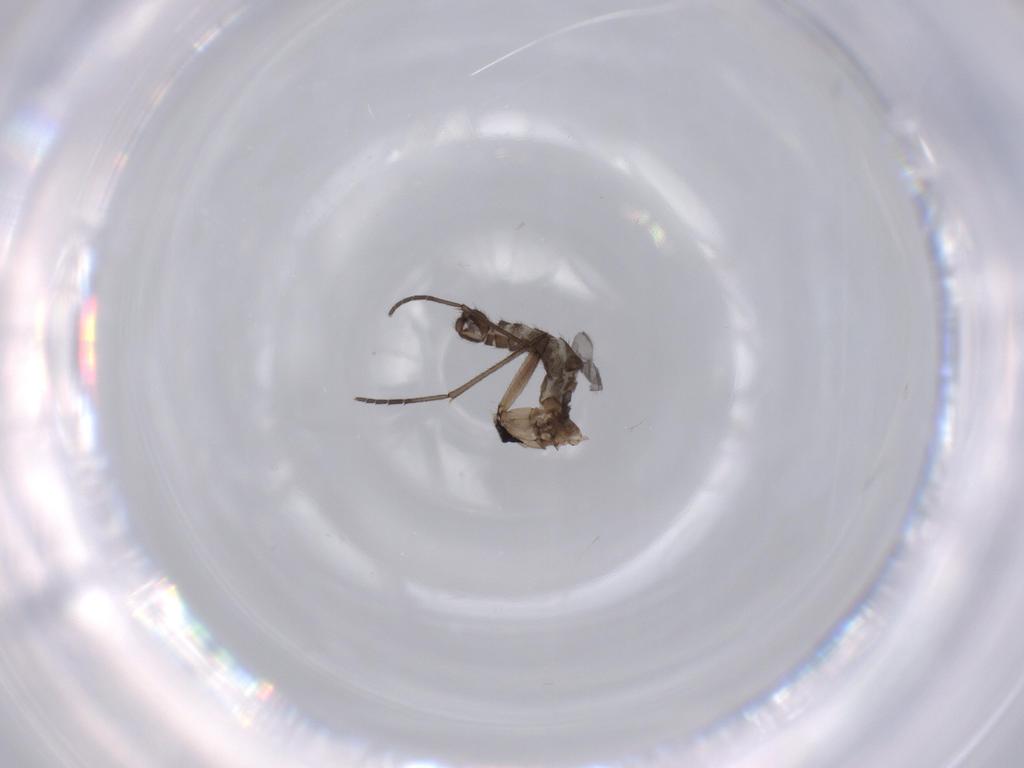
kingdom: Animalia
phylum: Arthropoda
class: Insecta
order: Diptera
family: Sciaridae
